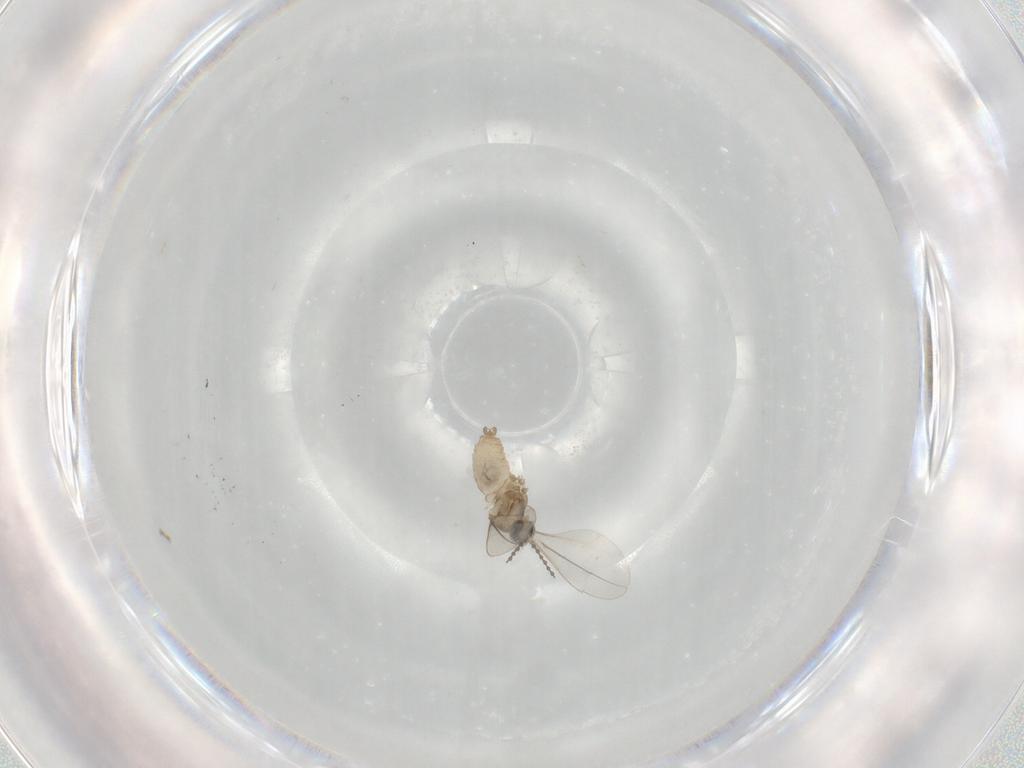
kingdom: Animalia
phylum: Arthropoda
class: Insecta
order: Diptera
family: Cecidomyiidae
